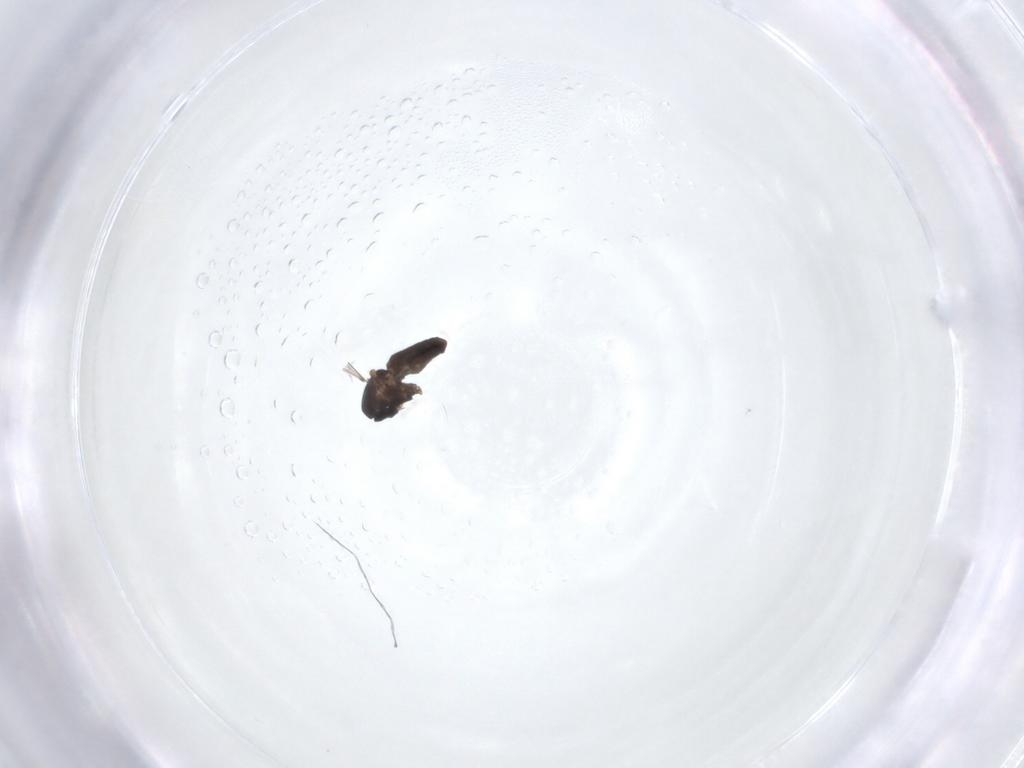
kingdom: Animalia
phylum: Arthropoda
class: Insecta
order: Diptera
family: Ceratopogonidae
